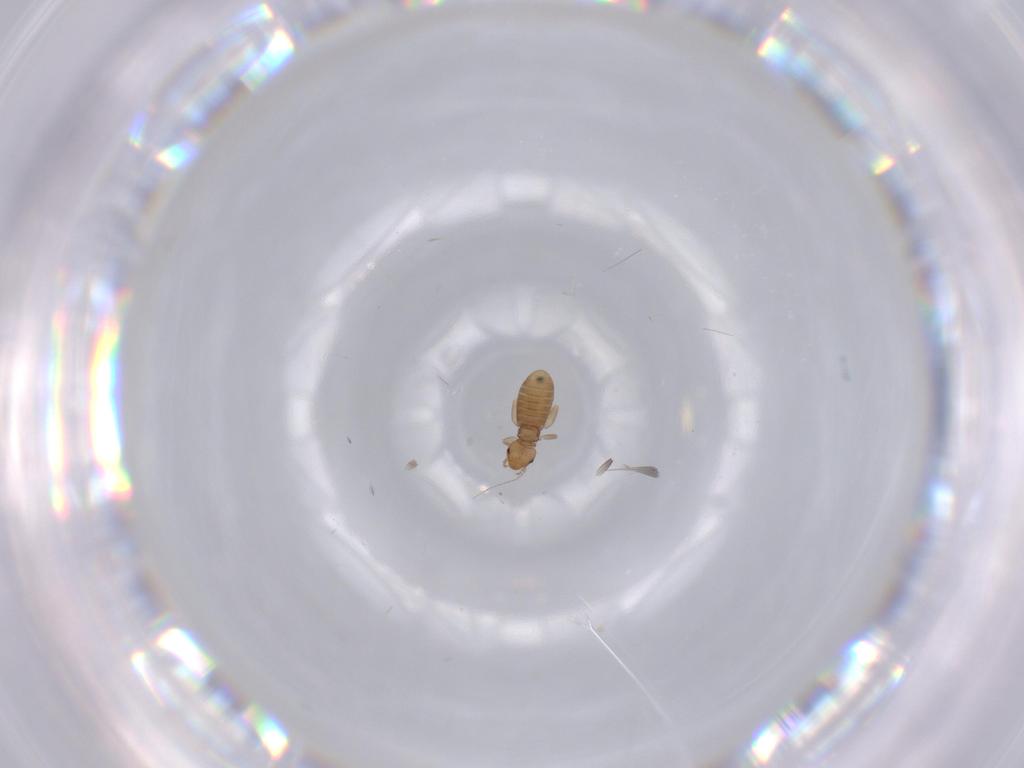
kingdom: Animalia
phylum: Arthropoda
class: Insecta
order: Psocodea
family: Liposcelididae
